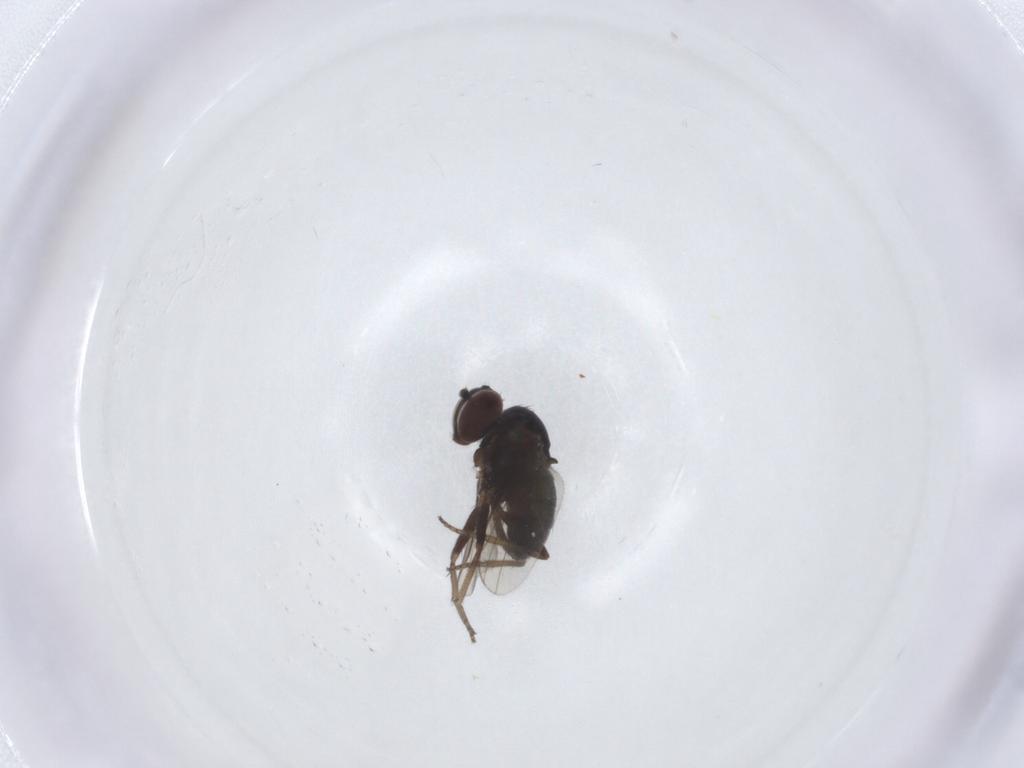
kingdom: Animalia
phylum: Arthropoda
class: Insecta
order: Diptera
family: Dolichopodidae
